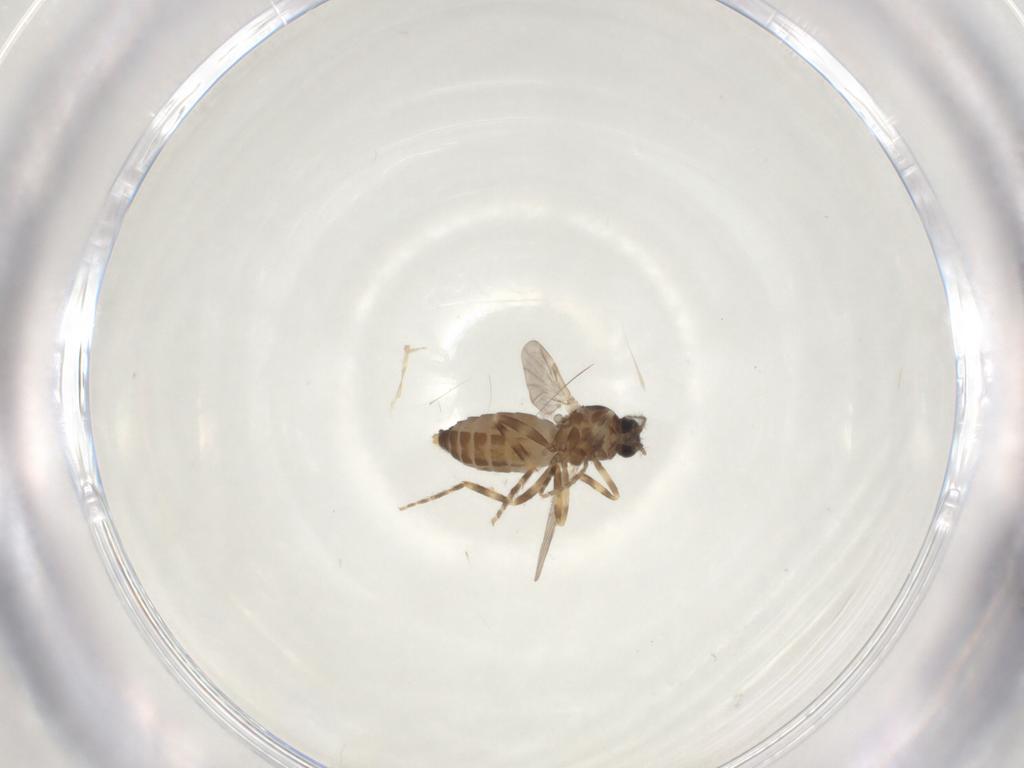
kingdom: Animalia
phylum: Arthropoda
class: Insecta
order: Diptera
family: Ceratopogonidae
